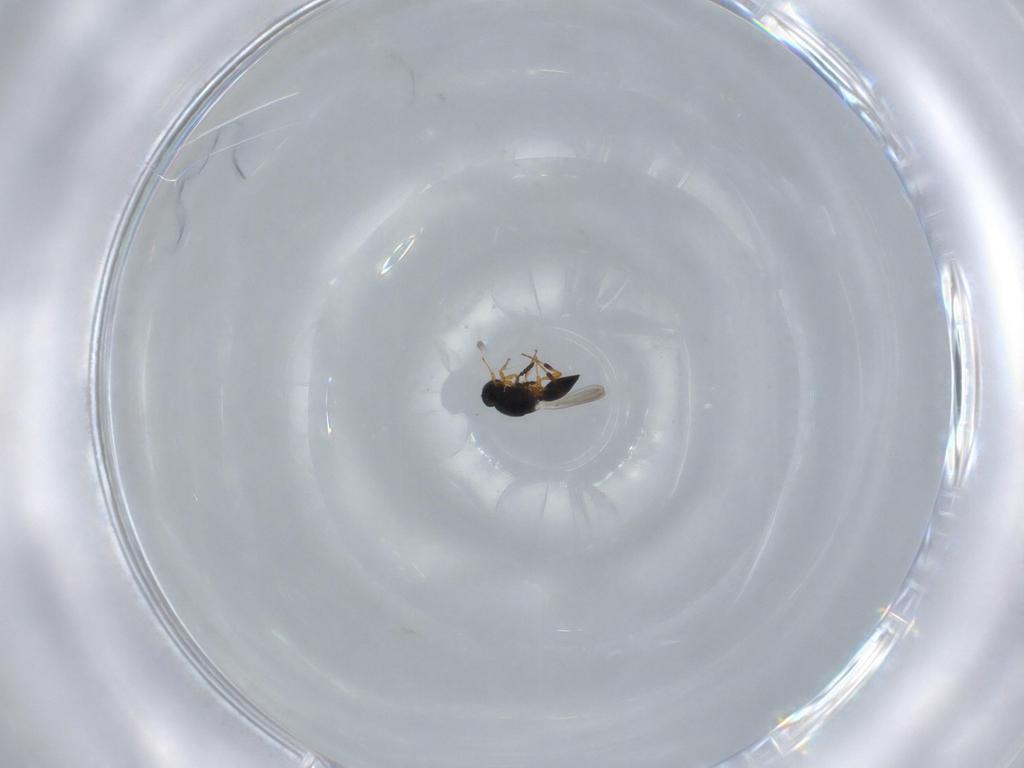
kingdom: Animalia
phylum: Arthropoda
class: Insecta
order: Hymenoptera
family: Platygastridae
